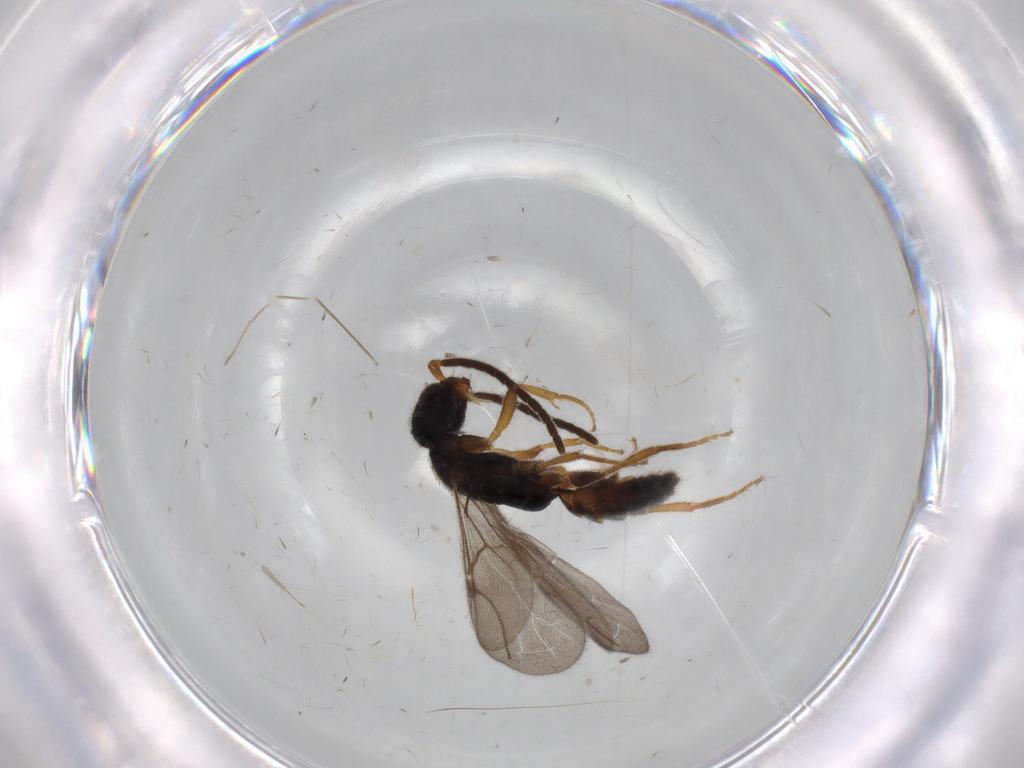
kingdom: Animalia
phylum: Arthropoda
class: Insecta
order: Hymenoptera
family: Bethylidae
